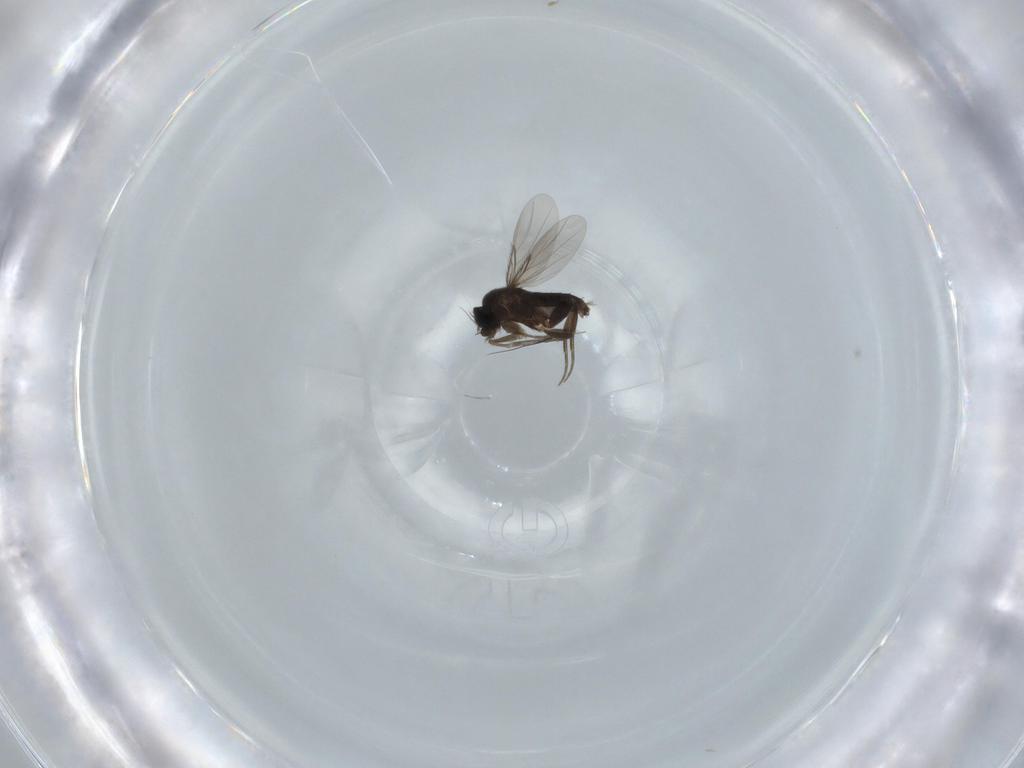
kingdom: Animalia
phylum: Arthropoda
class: Insecta
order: Diptera
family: Phoridae
